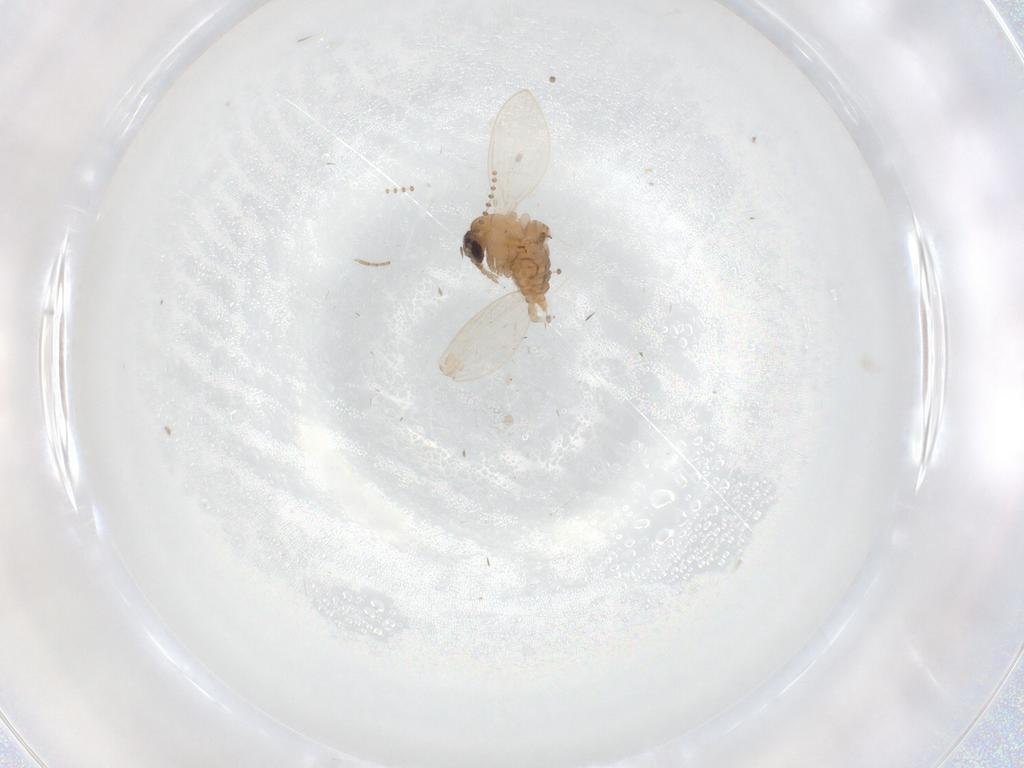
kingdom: Animalia
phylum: Arthropoda
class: Insecta
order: Diptera
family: Psychodidae
